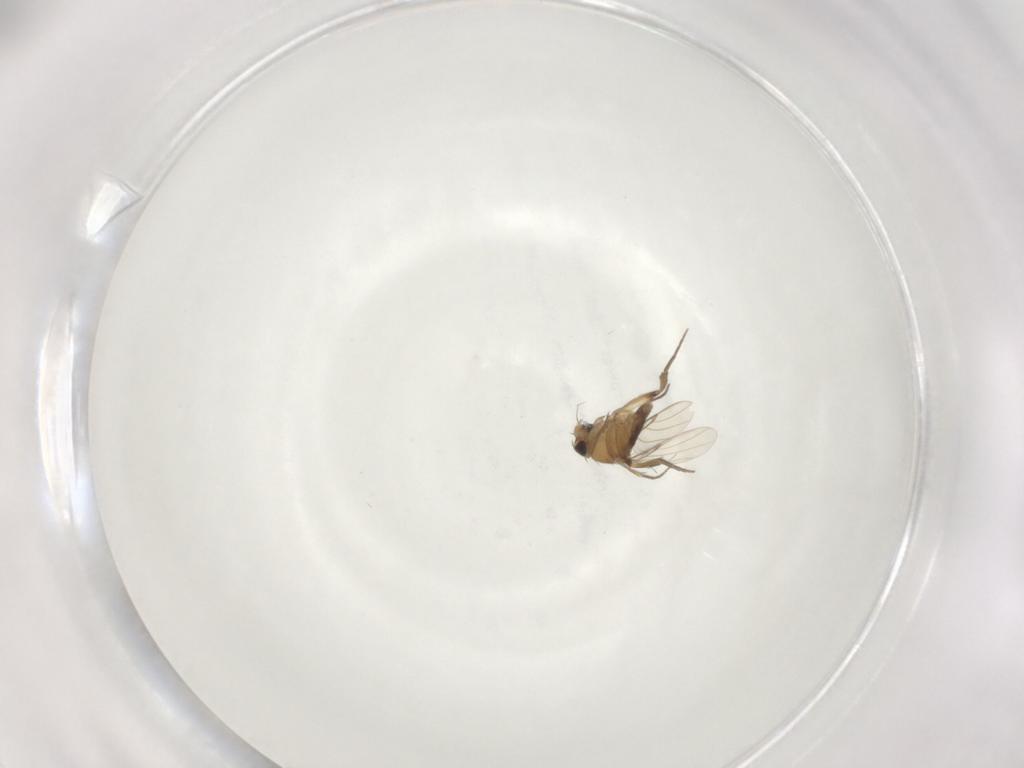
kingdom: Animalia
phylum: Arthropoda
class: Insecta
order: Diptera
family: Phoridae
